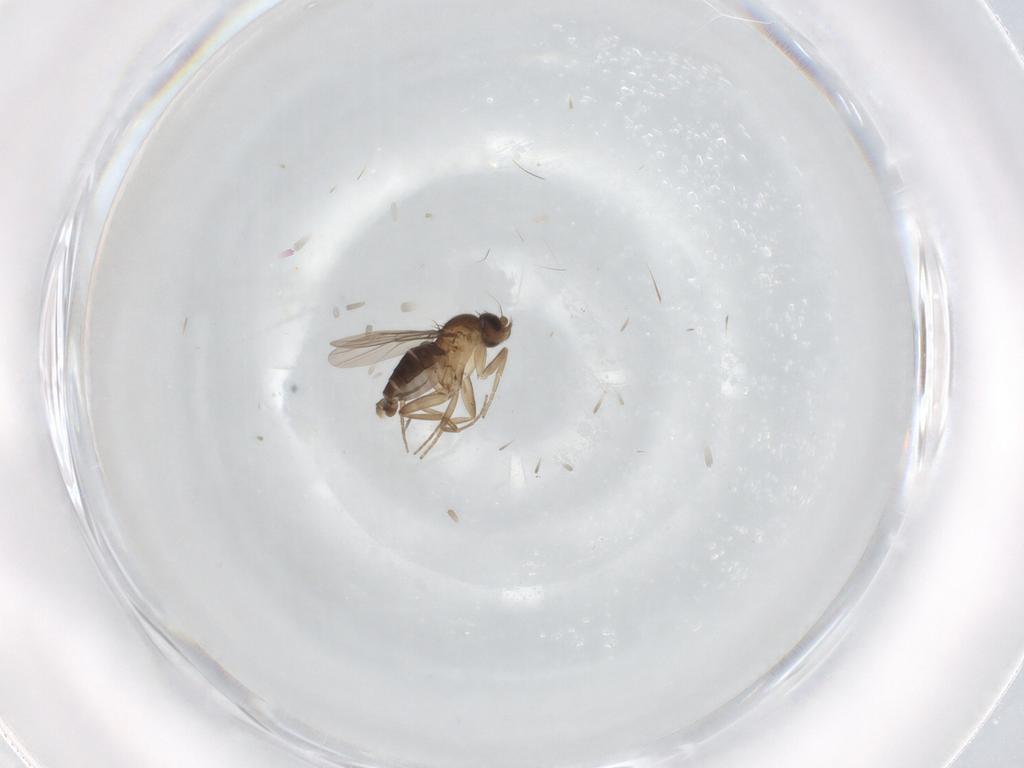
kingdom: Animalia
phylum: Arthropoda
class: Insecta
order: Diptera
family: Phoridae
